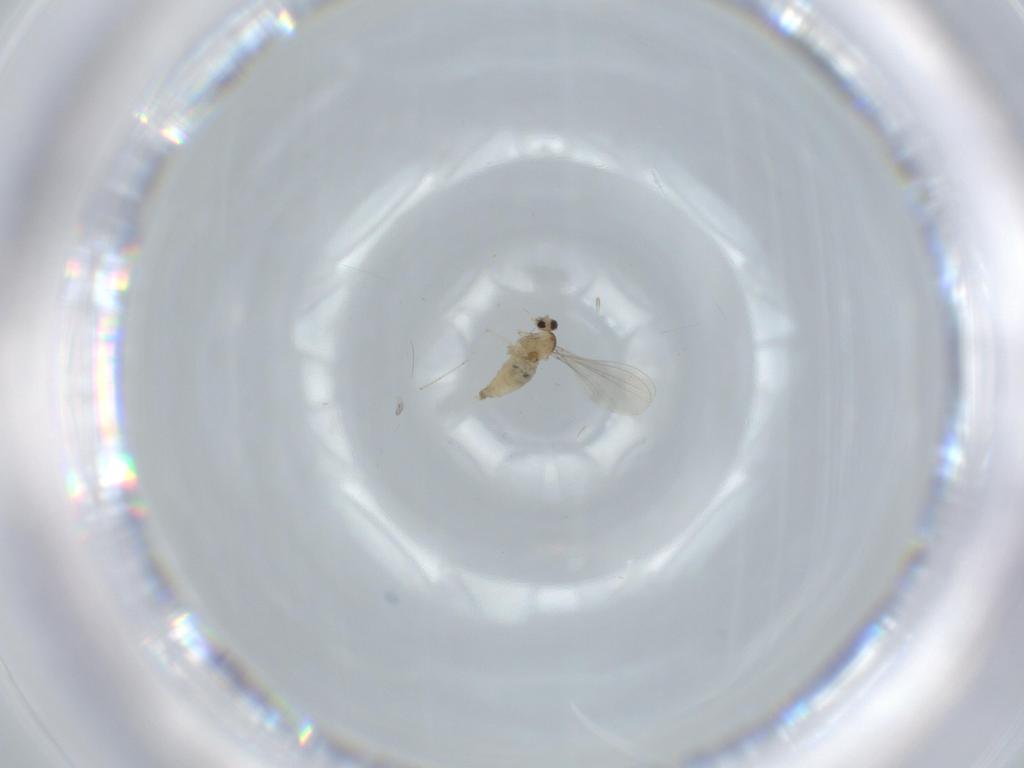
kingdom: Animalia
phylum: Arthropoda
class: Insecta
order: Diptera
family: Cecidomyiidae
